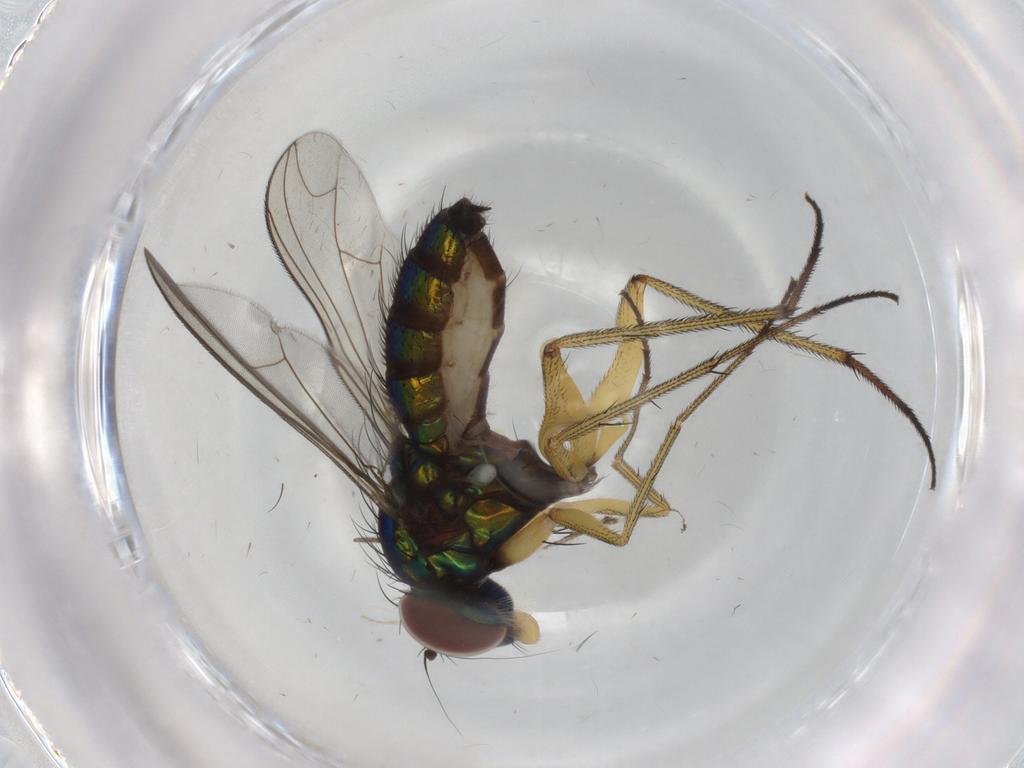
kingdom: Animalia
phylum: Arthropoda
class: Insecta
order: Diptera
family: Dolichopodidae
